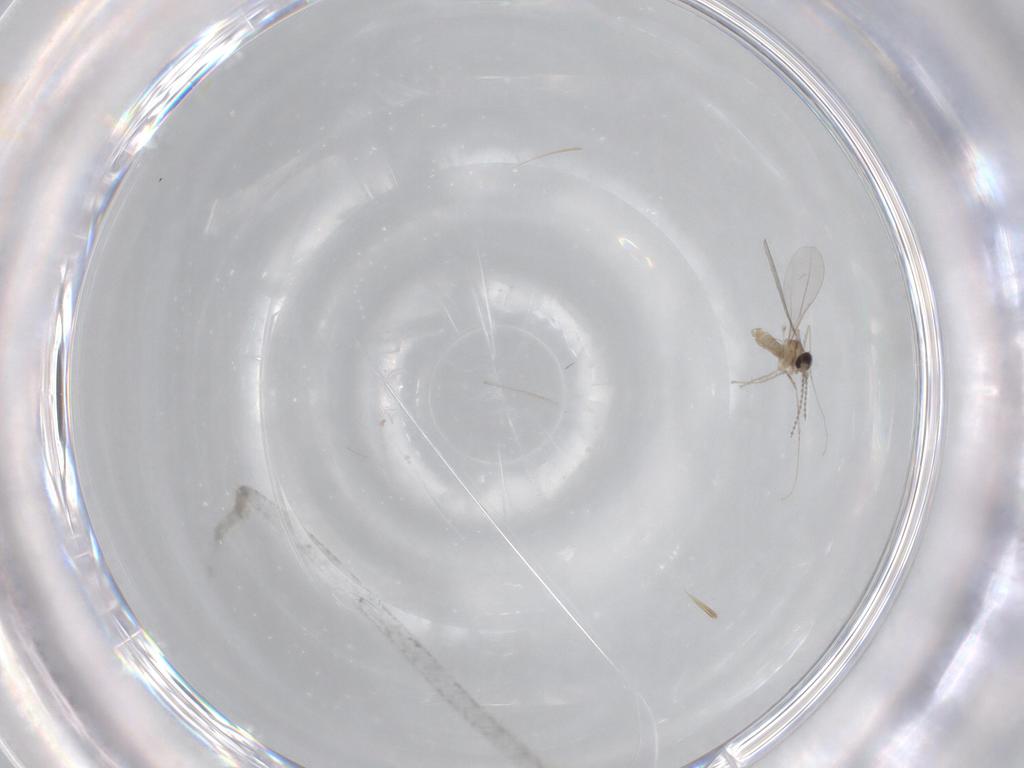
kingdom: Animalia
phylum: Arthropoda
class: Insecta
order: Diptera
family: Cecidomyiidae
